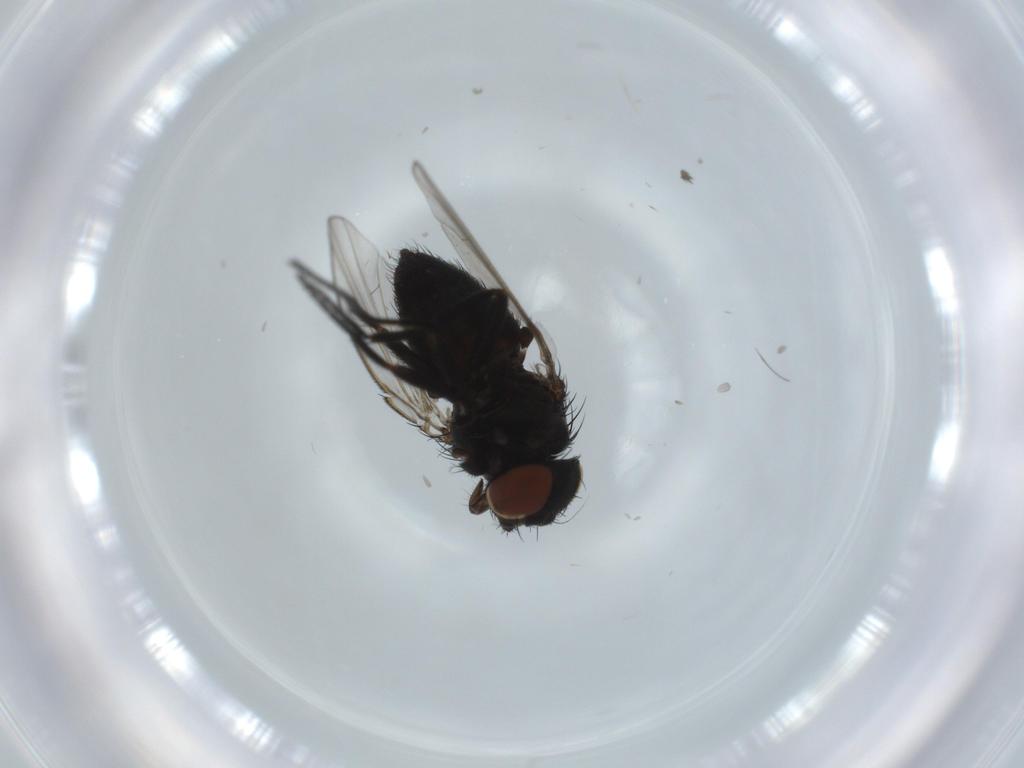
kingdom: Animalia
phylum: Arthropoda
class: Insecta
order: Diptera
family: Milichiidae
